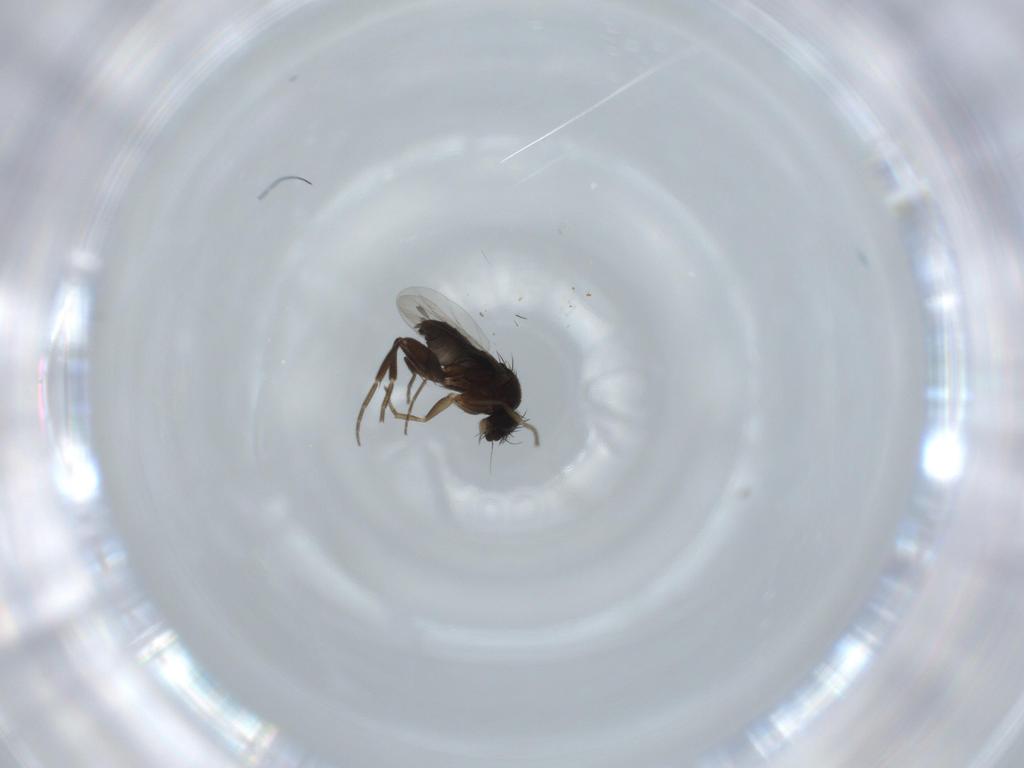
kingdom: Animalia
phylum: Arthropoda
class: Insecta
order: Diptera
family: Phoridae
